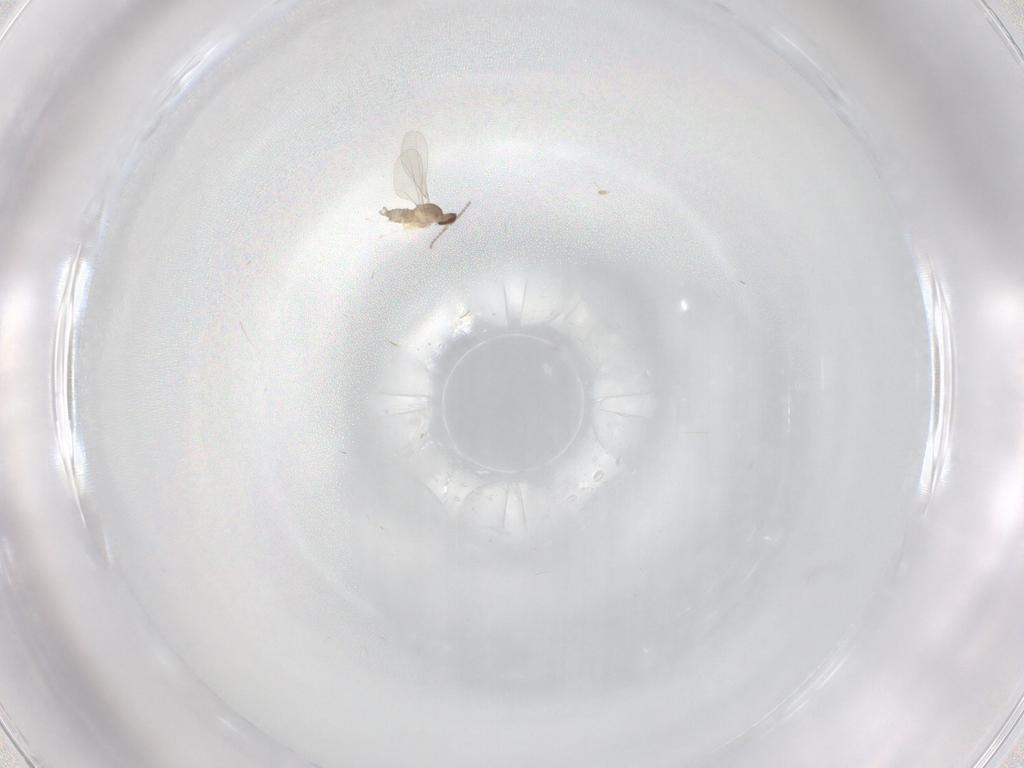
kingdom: Animalia
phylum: Arthropoda
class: Insecta
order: Diptera
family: Cecidomyiidae
